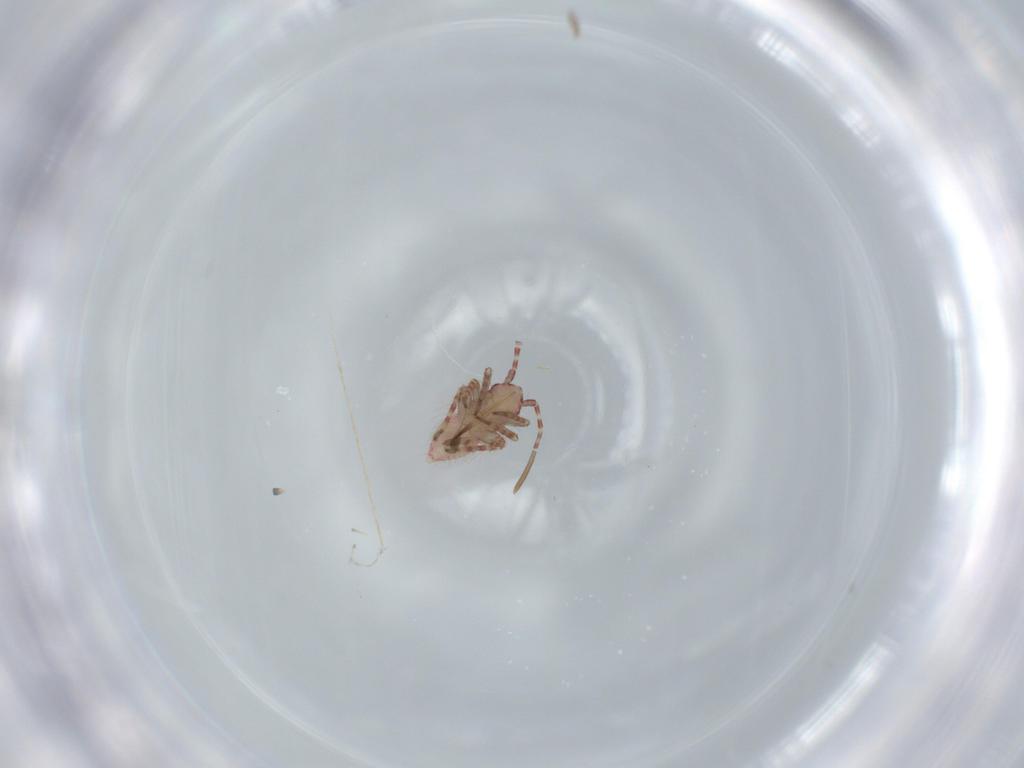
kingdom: Animalia
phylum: Arthropoda
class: Insecta
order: Hemiptera
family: Miridae
